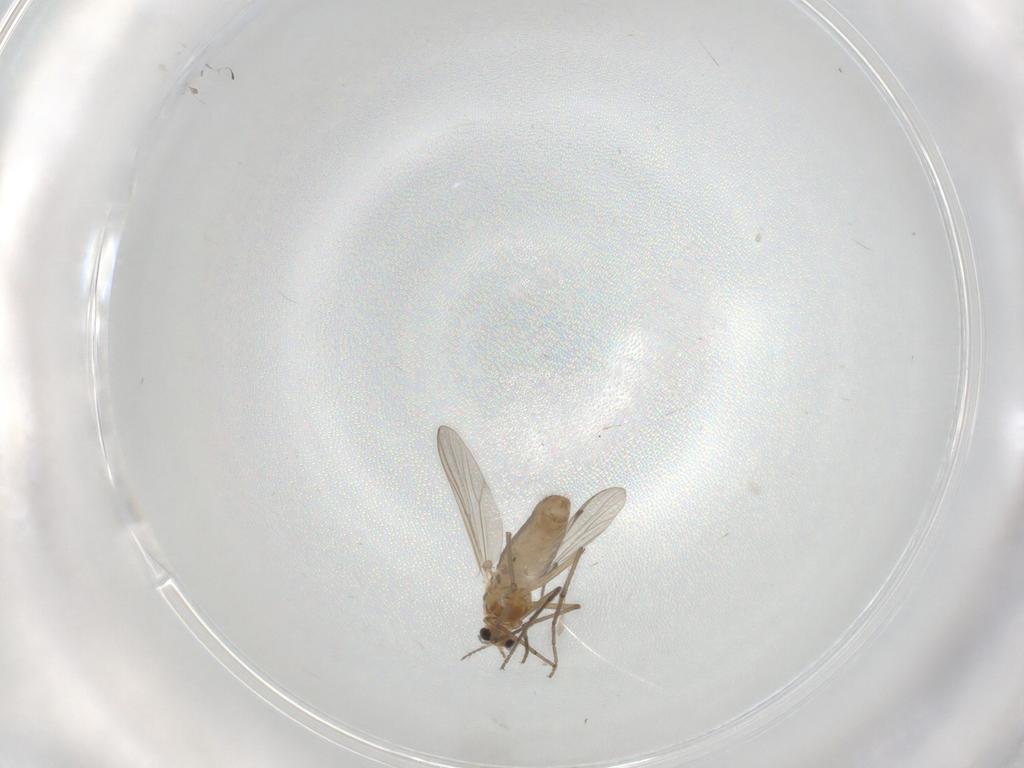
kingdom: Animalia
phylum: Arthropoda
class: Insecta
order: Diptera
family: Chironomidae
